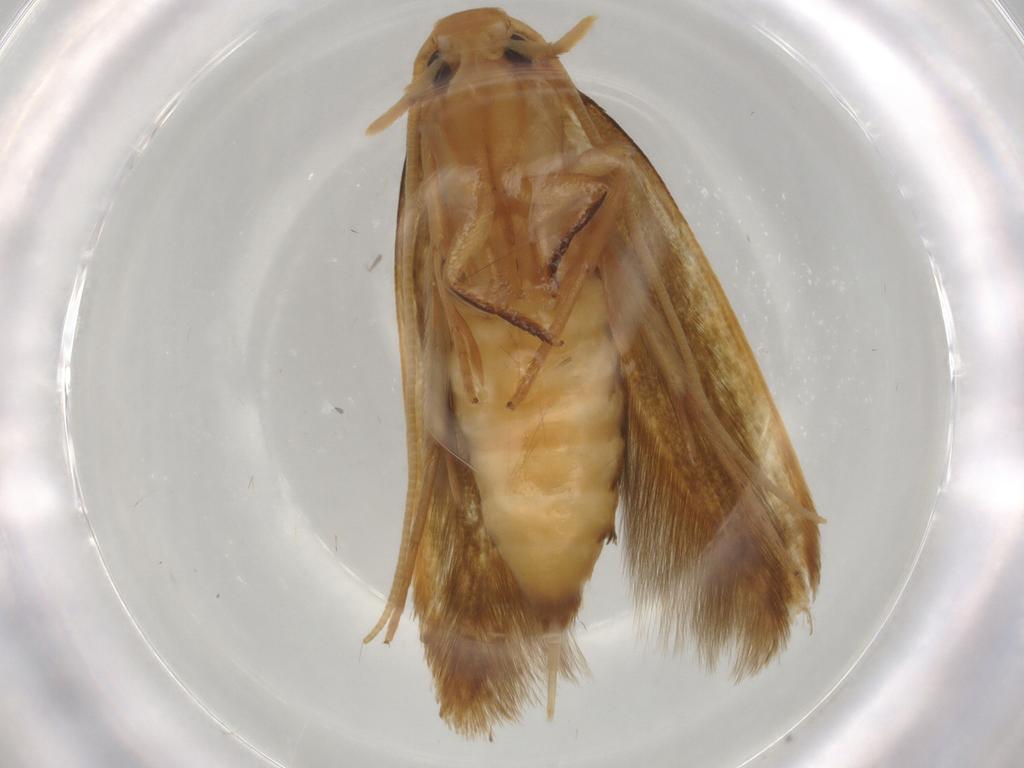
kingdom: Animalia
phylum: Arthropoda
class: Insecta
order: Lepidoptera
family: Tineidae
